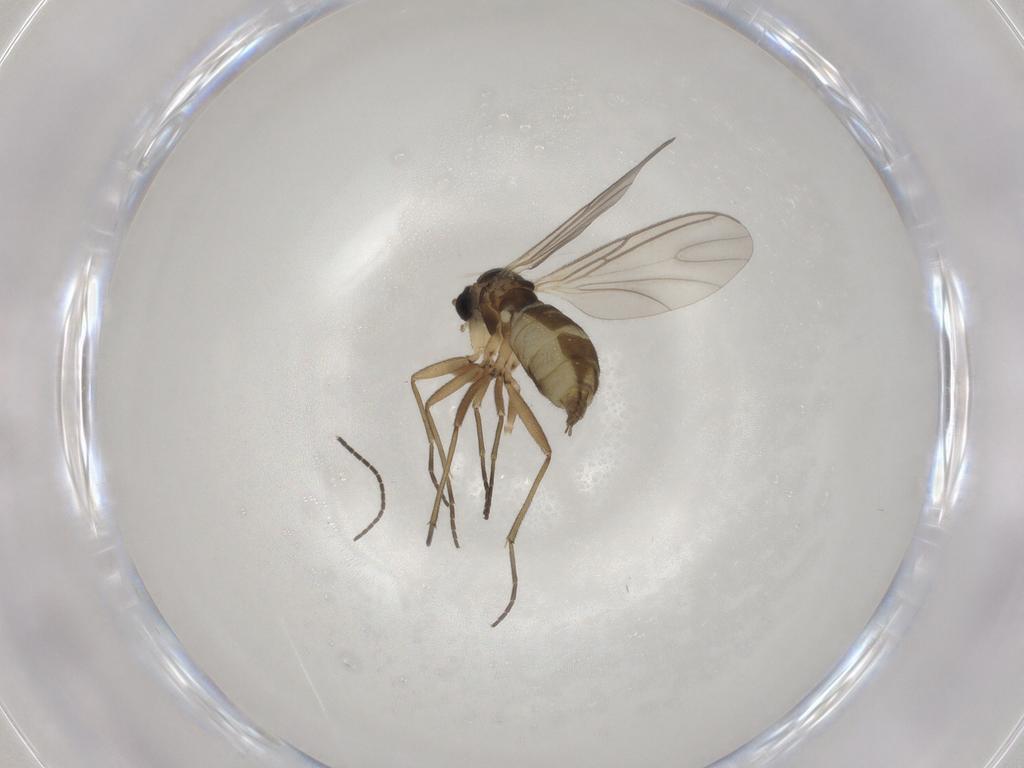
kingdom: Animalia
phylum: Arthropoda
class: Insecta
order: Diptera
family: Sciaridae
